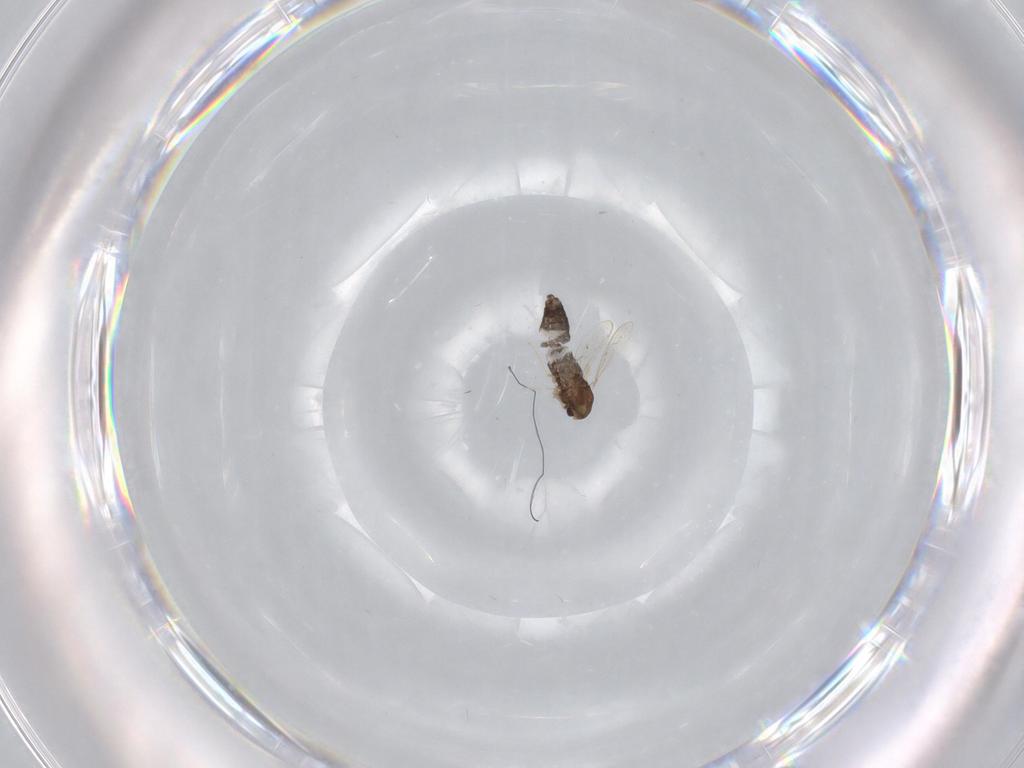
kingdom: Animalia
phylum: Arthropoda
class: Insecta
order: Diptera
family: Chironomidae
